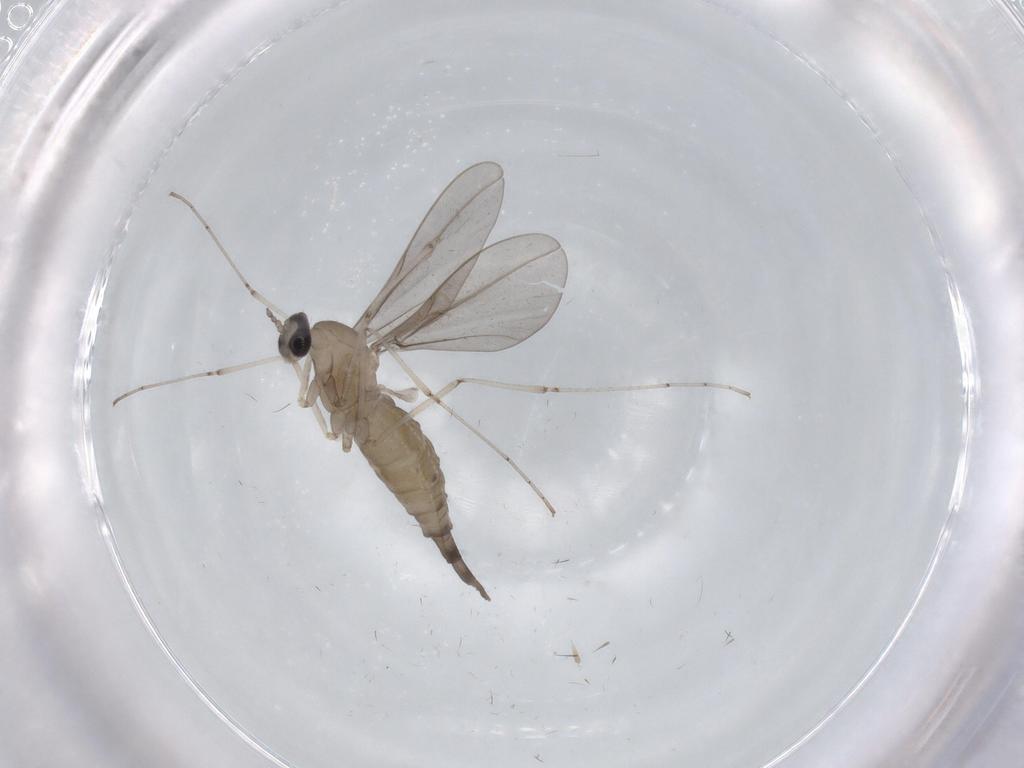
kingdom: Animalia
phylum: Arthropoda
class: Insecta
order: Diptera
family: Cecidomyiidae
